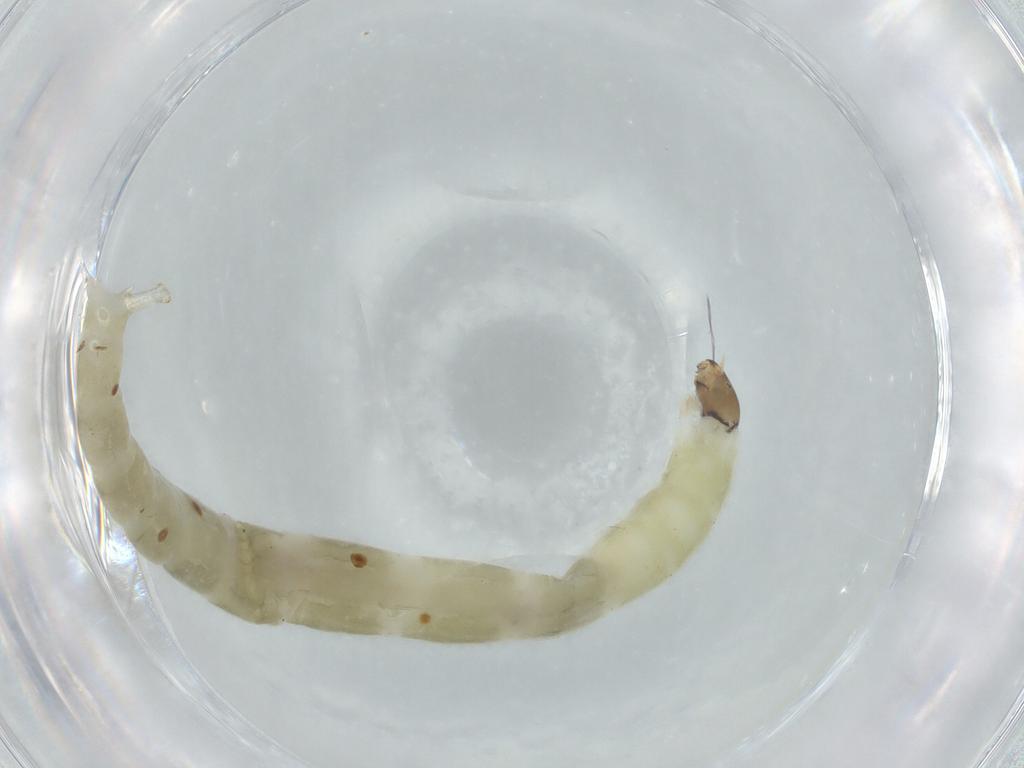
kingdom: Animalia
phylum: Arthropoda
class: Insecta
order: Diptera
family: Chironomidae
